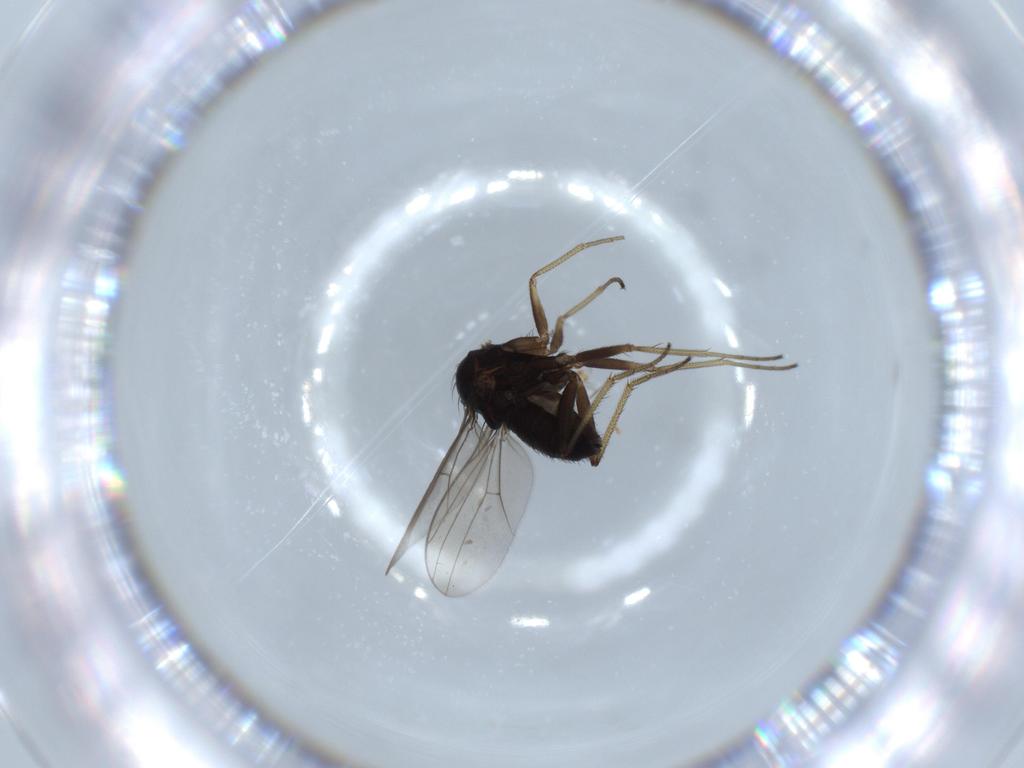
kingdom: Animalia
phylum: Arthropoda
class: Insecta
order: Diptera
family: Dolichopodidae
